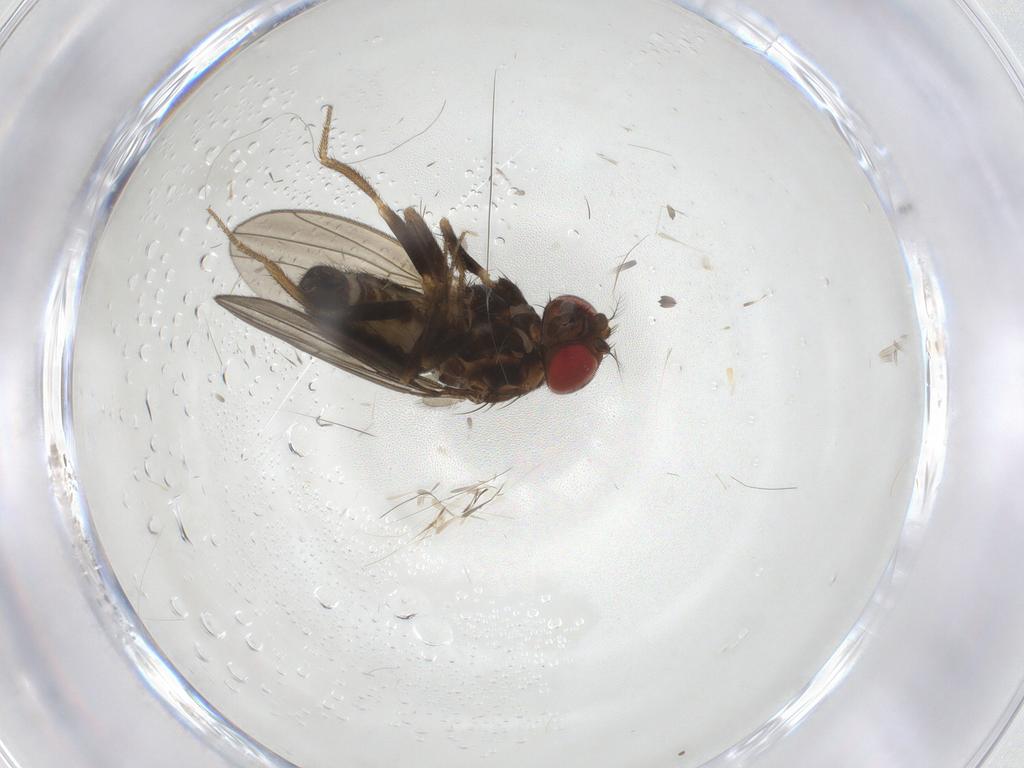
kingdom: Animalia
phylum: Arthropoda
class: Insecta
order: Diptera
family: Drosophilidae
